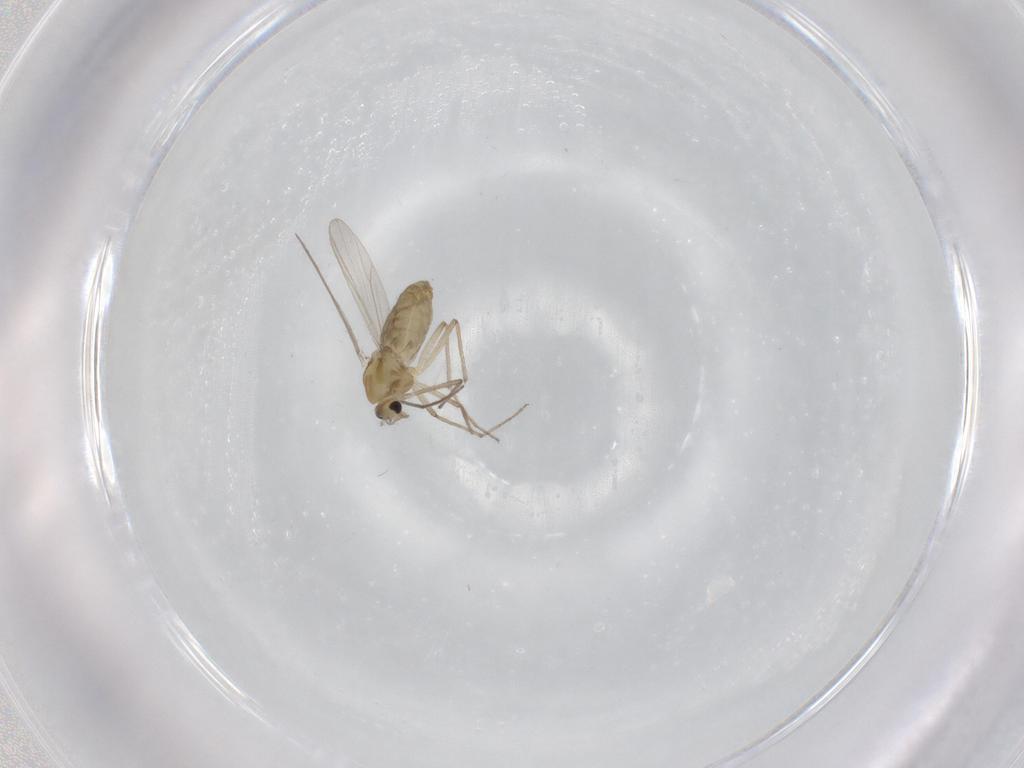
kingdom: Animalia
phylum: Arthropoda
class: Insecta
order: Diptera
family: Chironomidae
